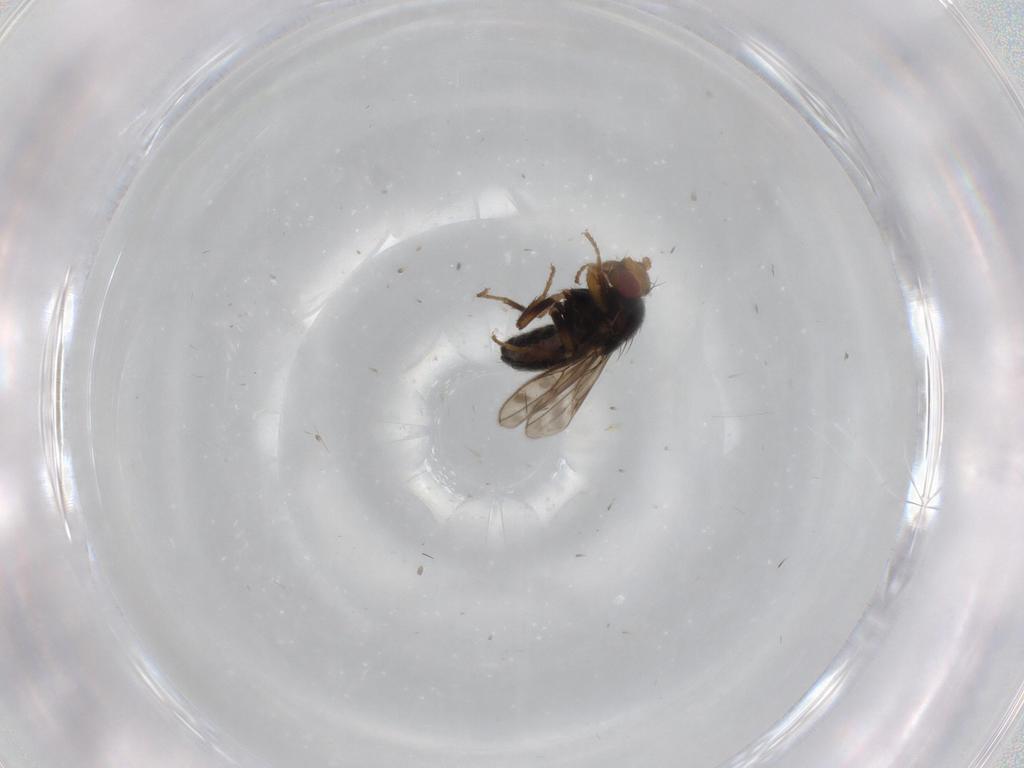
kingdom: Animalia
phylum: Arthropoda
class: Insecta
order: Diptera
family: Sphaeroceridae
